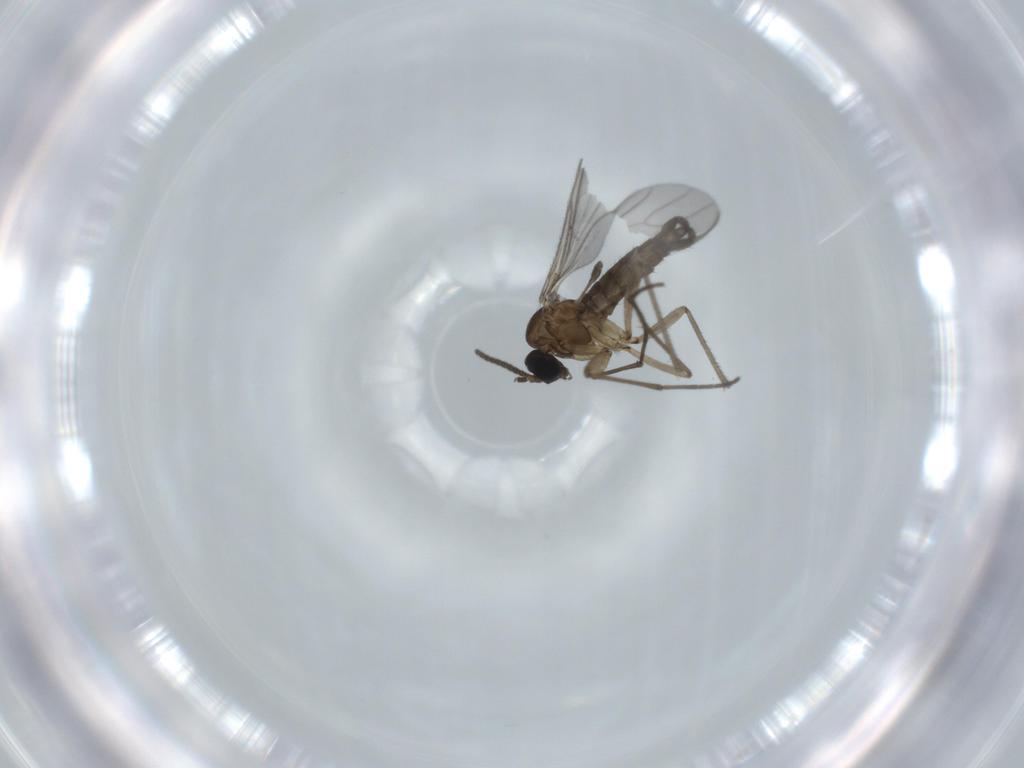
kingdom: Animalia
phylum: Arthropoda
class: Insecta
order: Diptera
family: Sciaridae
